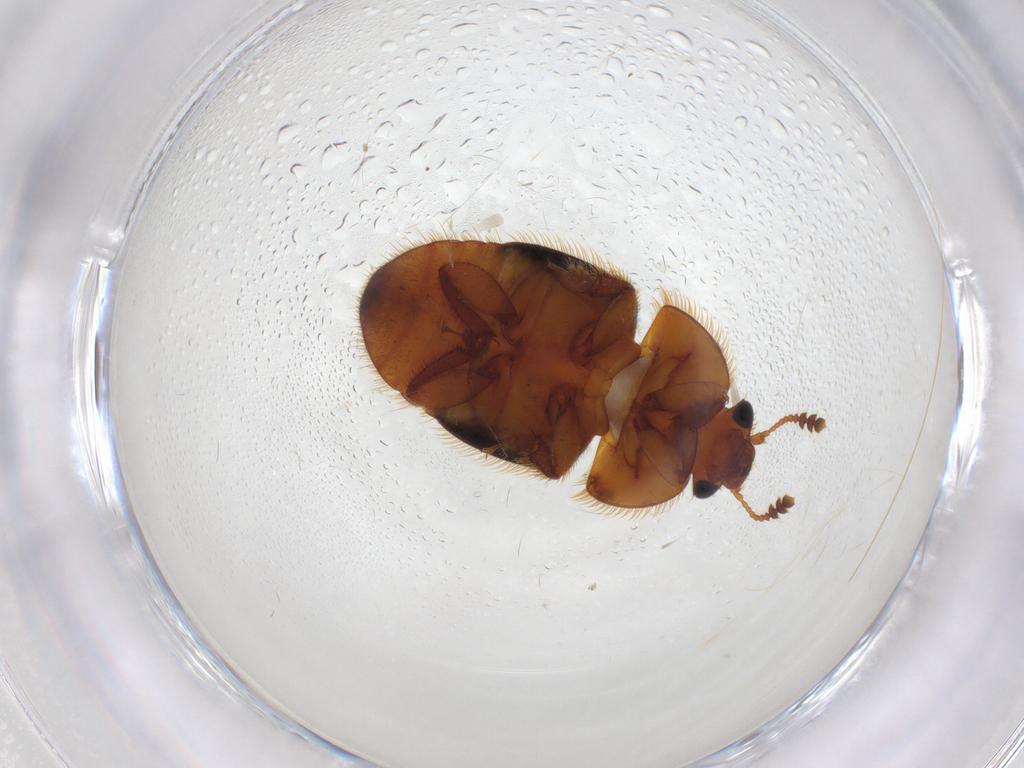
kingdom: Animalia
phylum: Arthropoda
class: Insecta
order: Coleoptera
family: Nitidulidae
